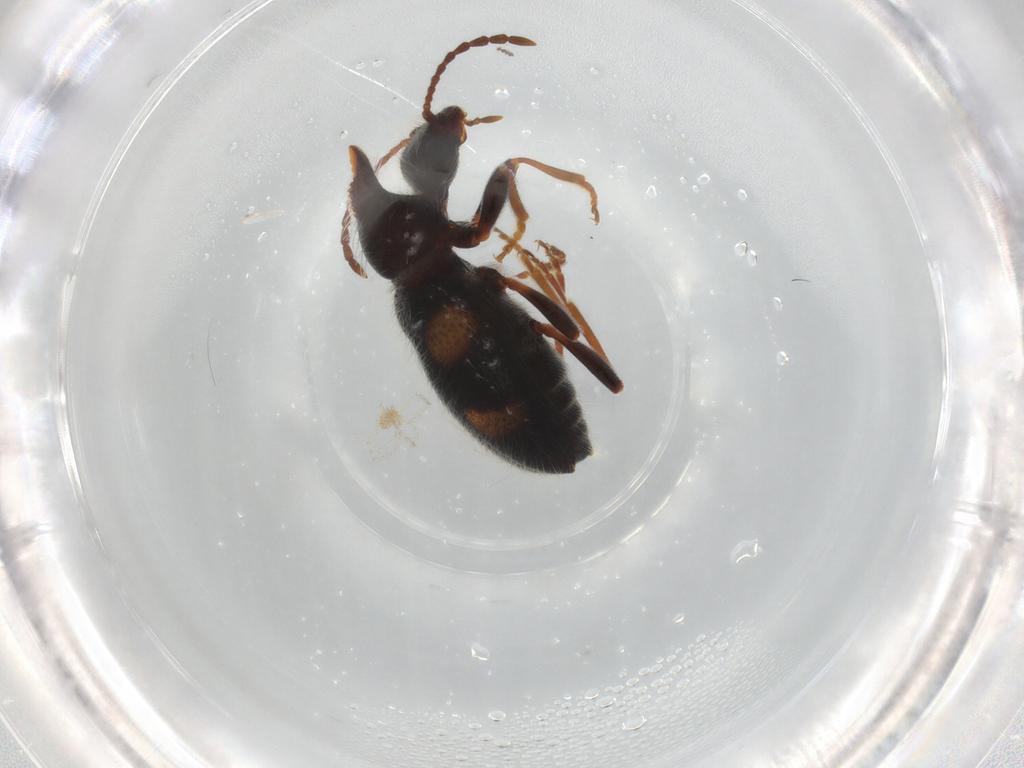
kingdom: Animalia
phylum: Arthropoda
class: Insecta
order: Coleoptera
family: Anthicidae
